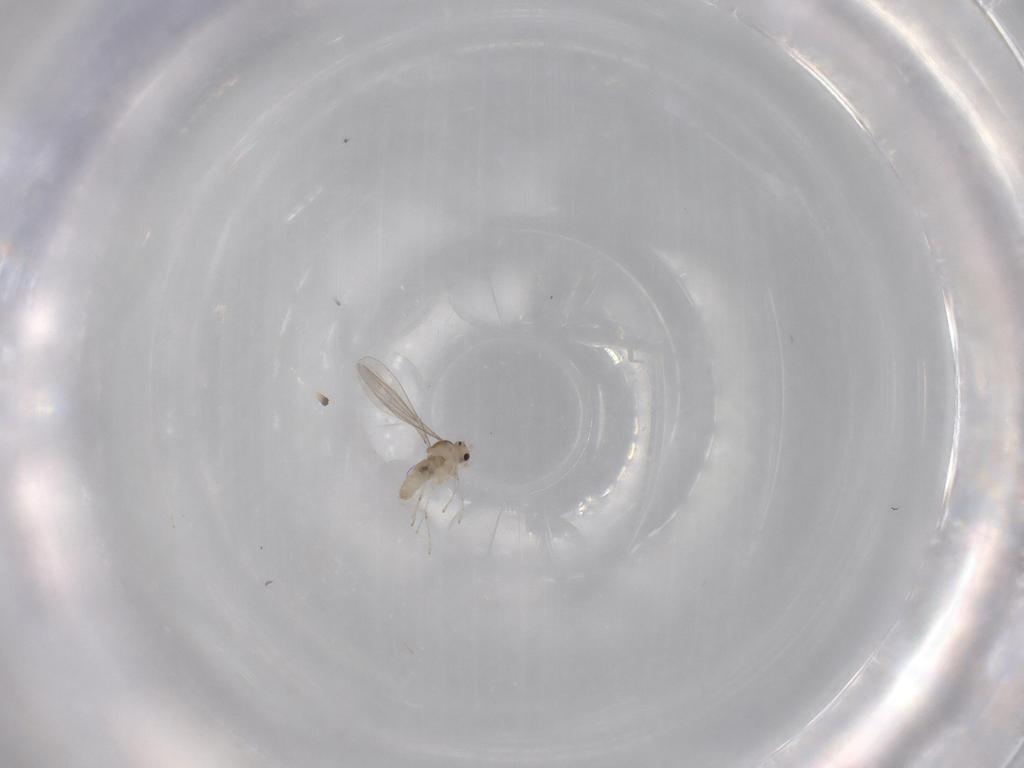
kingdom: Animalia
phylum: Arthropoda
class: Insecta
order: Diptera
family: Cecidomyiidae
